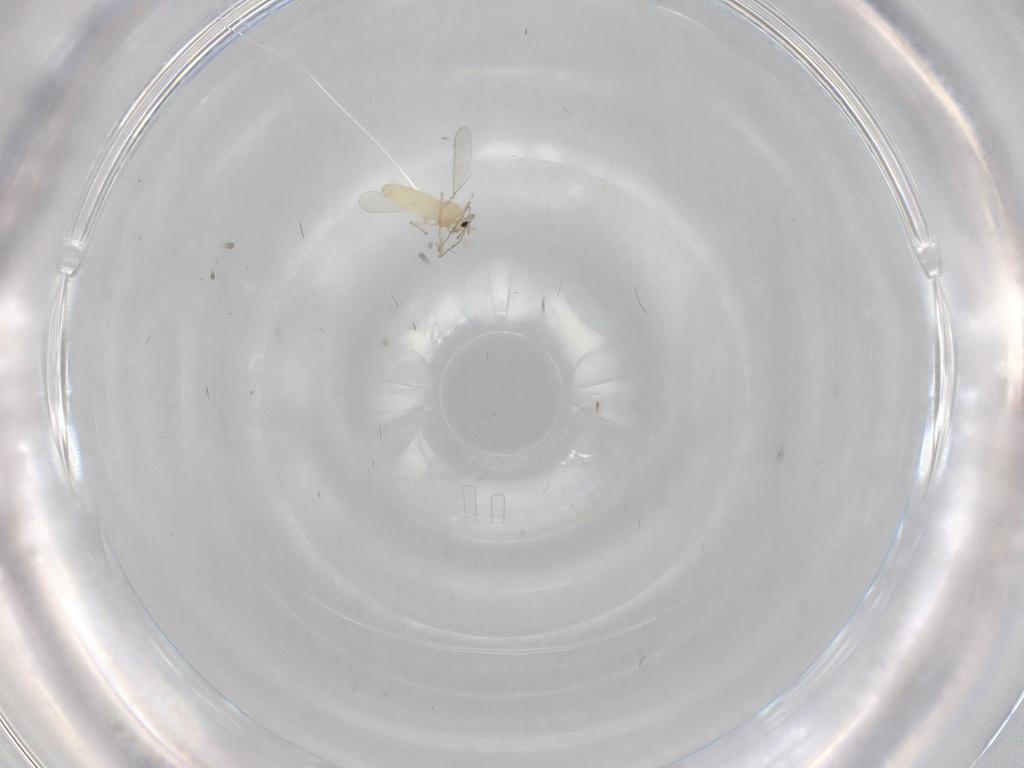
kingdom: Animalia
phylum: Arthropoda
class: Insecta
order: Diptera
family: Chironomidae
